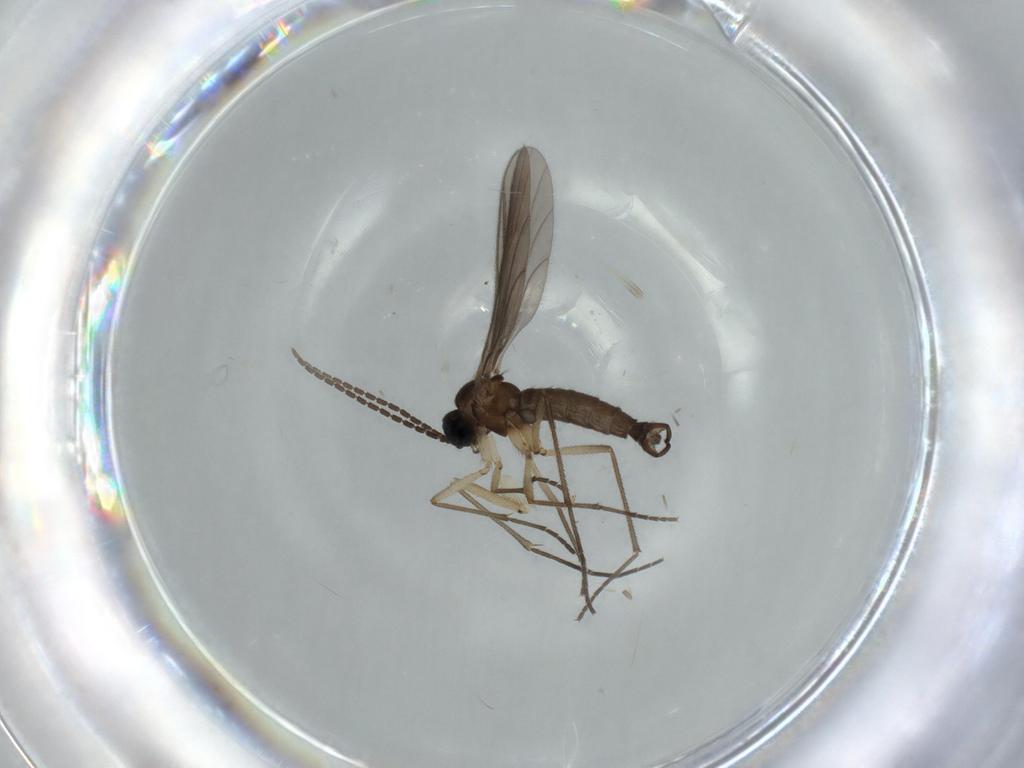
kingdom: Animalia
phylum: Arthropoda
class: Insecta
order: Diptera
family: Sciaridae
